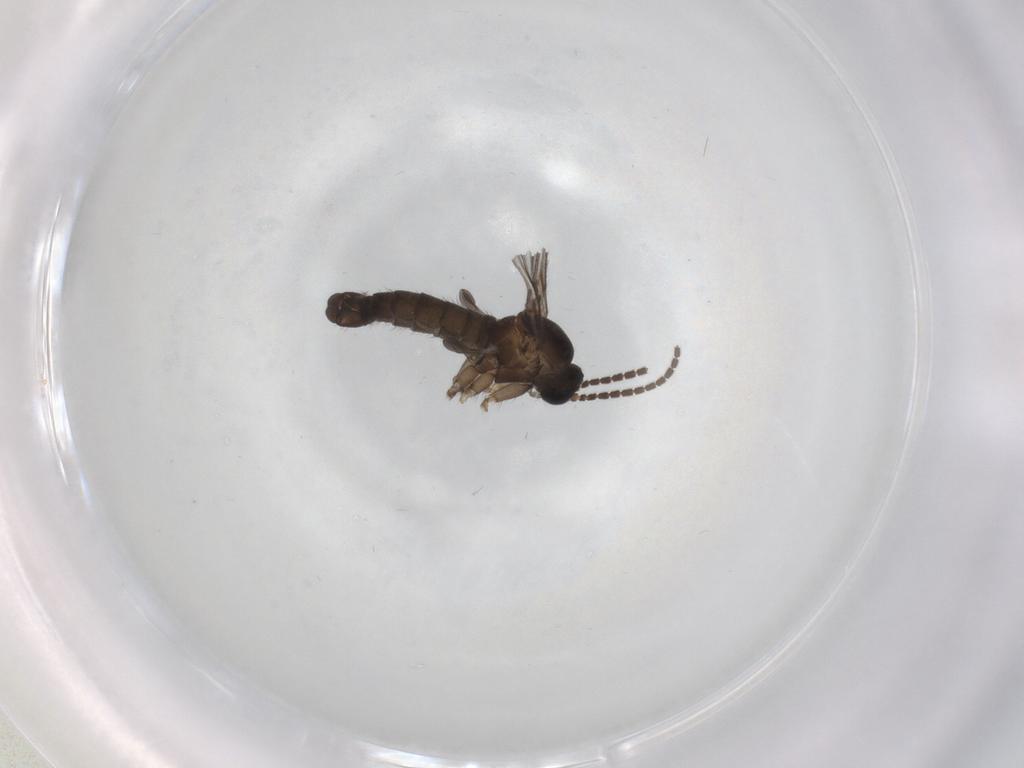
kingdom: Animalia
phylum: Arthropoda
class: Insecta
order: Diptera
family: Sciaridae
